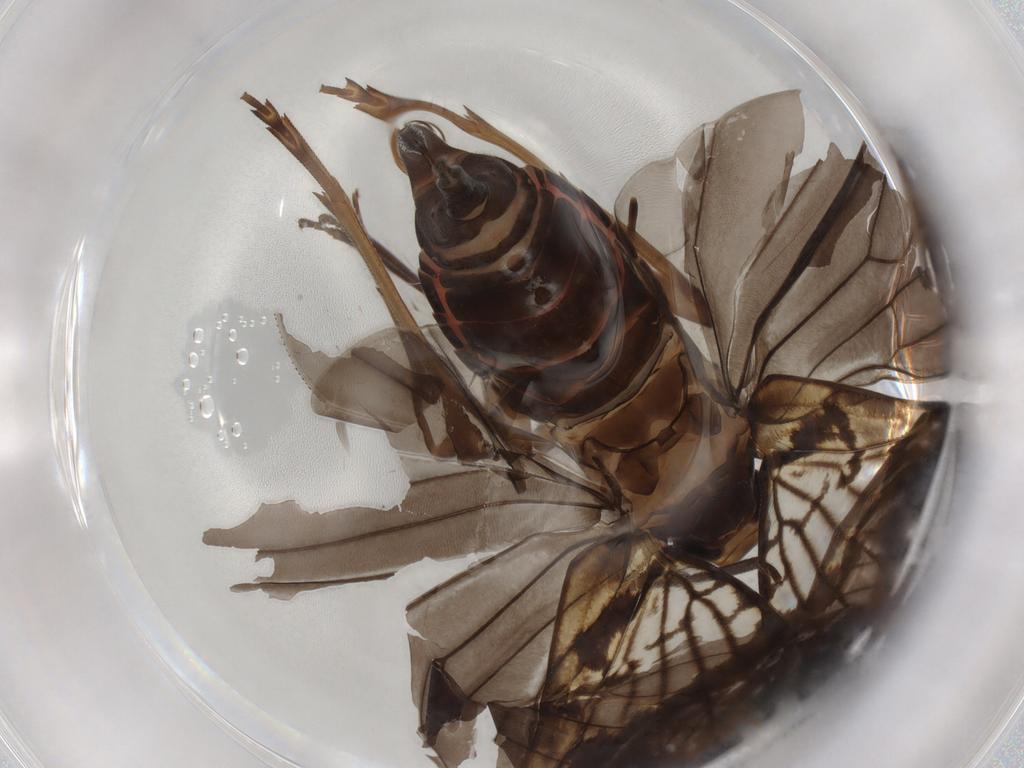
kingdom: Animalia
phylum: Arthropoda
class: Insecta
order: Hemiptera
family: Cixiidae
